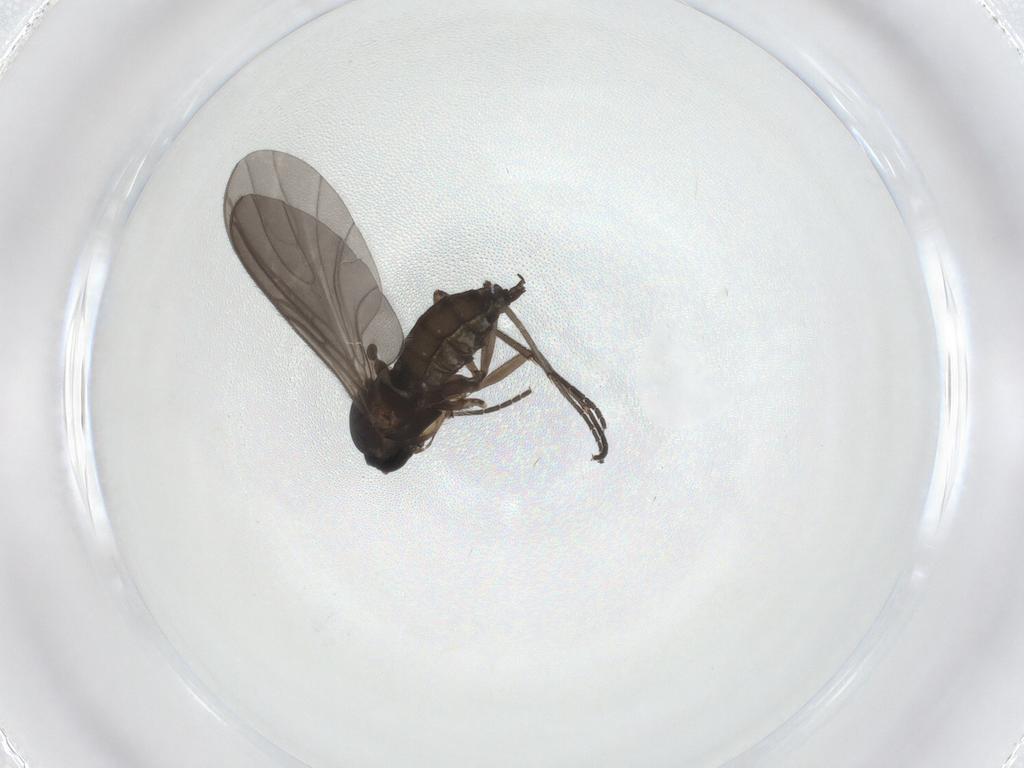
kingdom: Animalia
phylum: Arthropoda
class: Insecta
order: Diptera
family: Sciaridae
